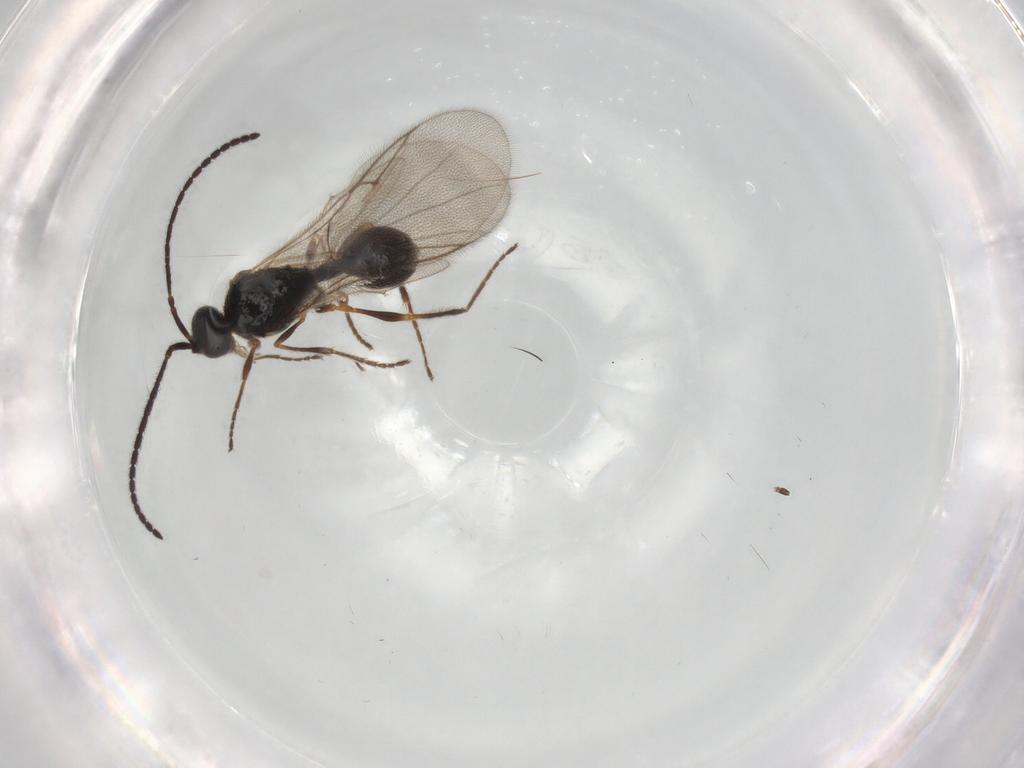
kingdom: Animalia
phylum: Arthropoda
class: Insecta
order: Hymenoptera
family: Diapriidae
